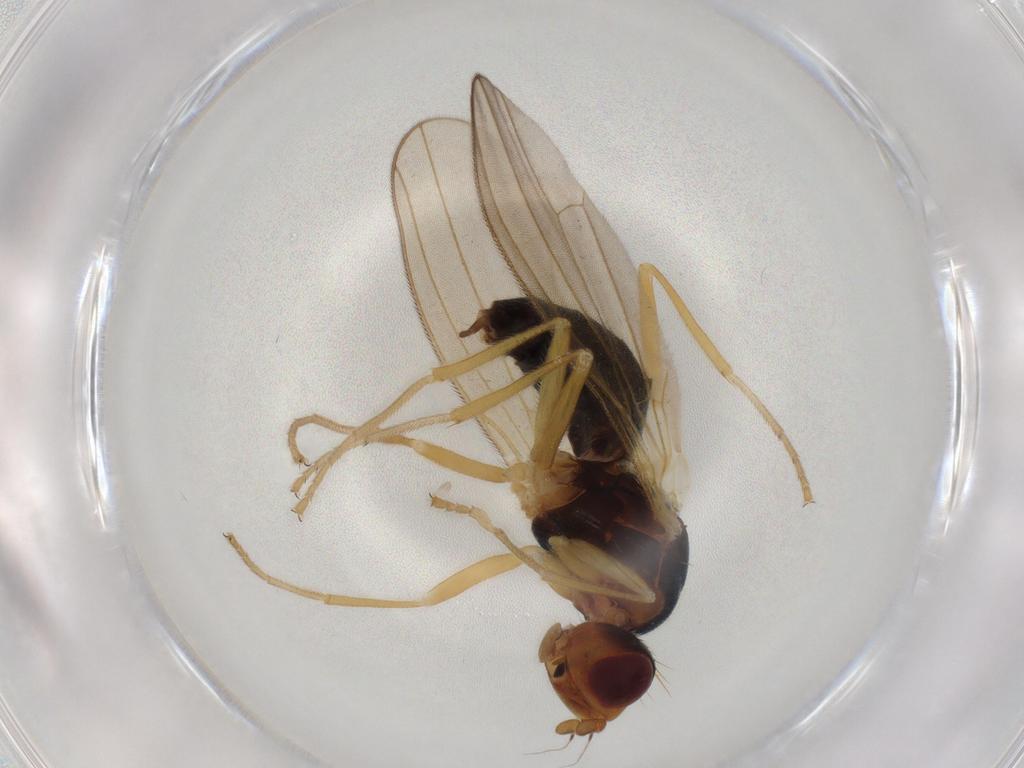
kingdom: Animalia
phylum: Arthropoda
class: Insecta
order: Diptera
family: Psilidae
